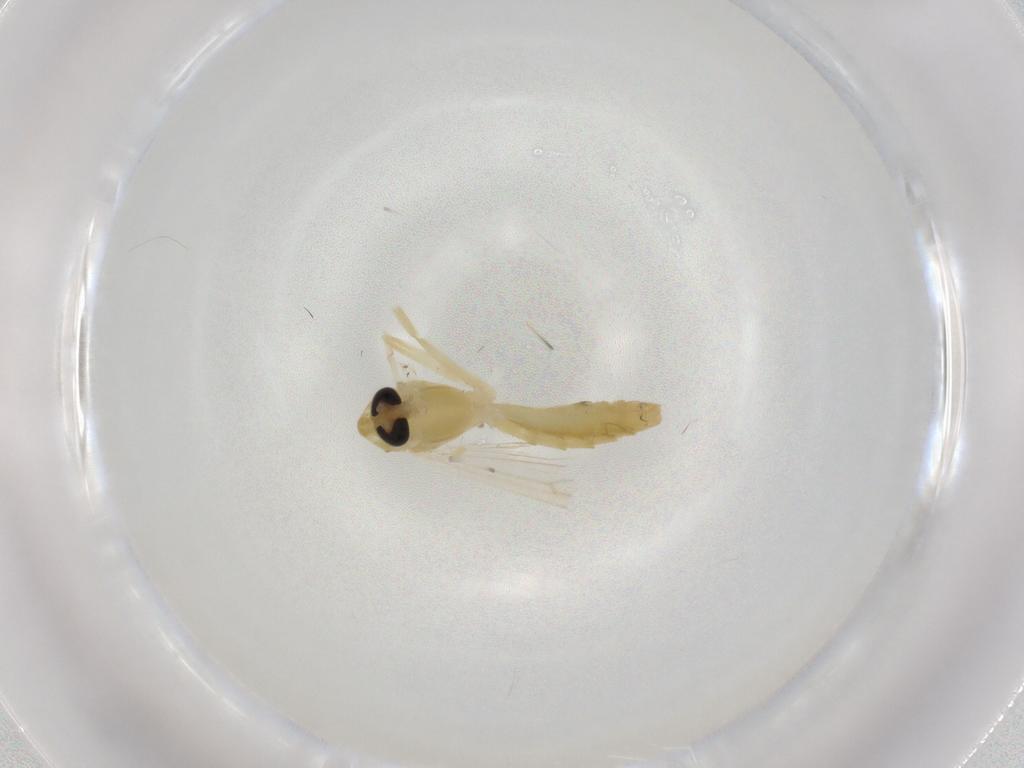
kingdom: Animalia
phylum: Arthropoda
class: Insecta
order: Diptera
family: Chironomidae
